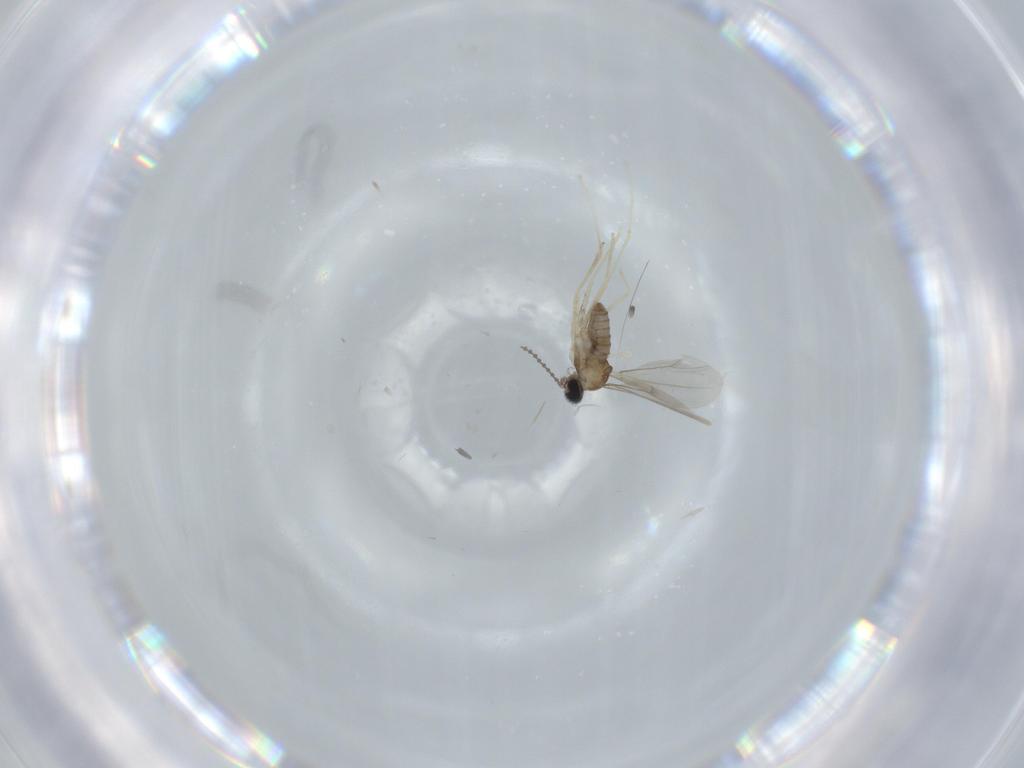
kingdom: Animalia
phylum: Arthropoda
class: Insecta
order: Diptera
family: Cecidomyiidae
